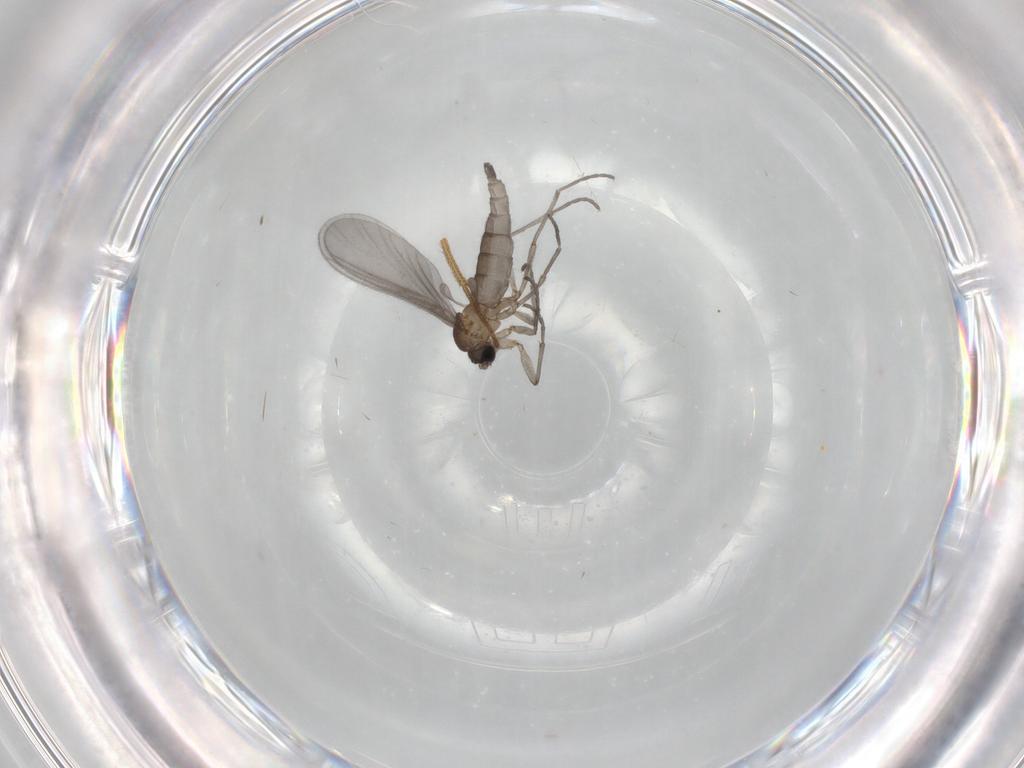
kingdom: Animalia
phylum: Arthropoda
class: Insecta
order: Diptera
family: Sciaridae
